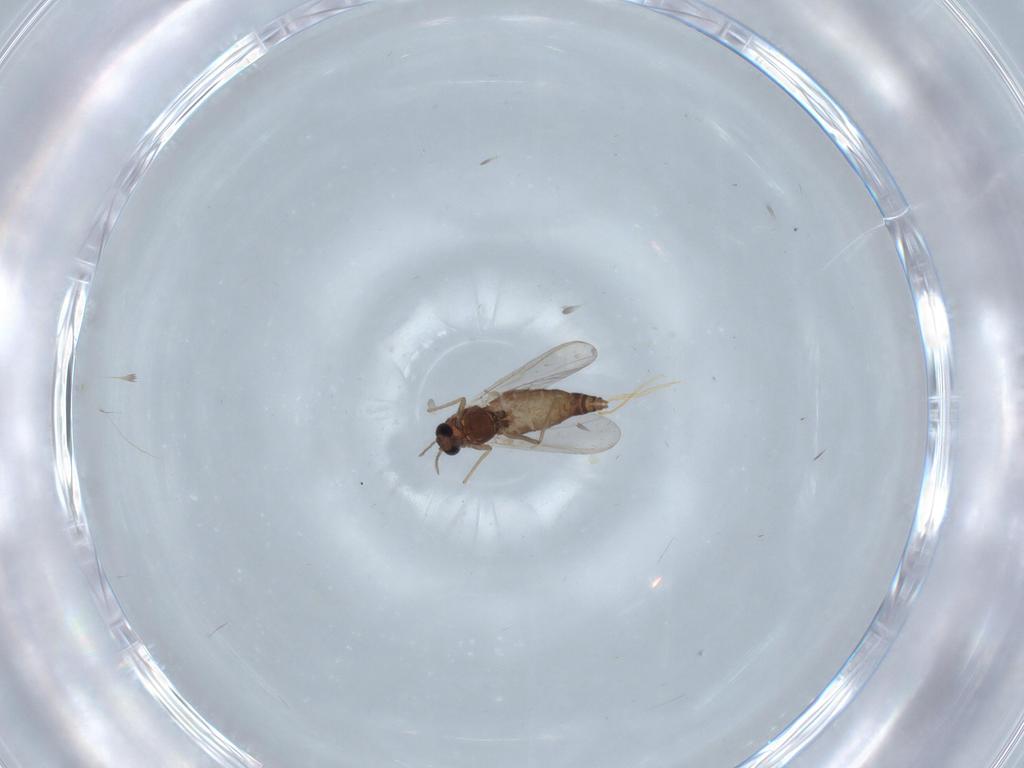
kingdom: Animalia
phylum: Arthropoda
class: Insecta
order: Diptera
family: Chironomidae
